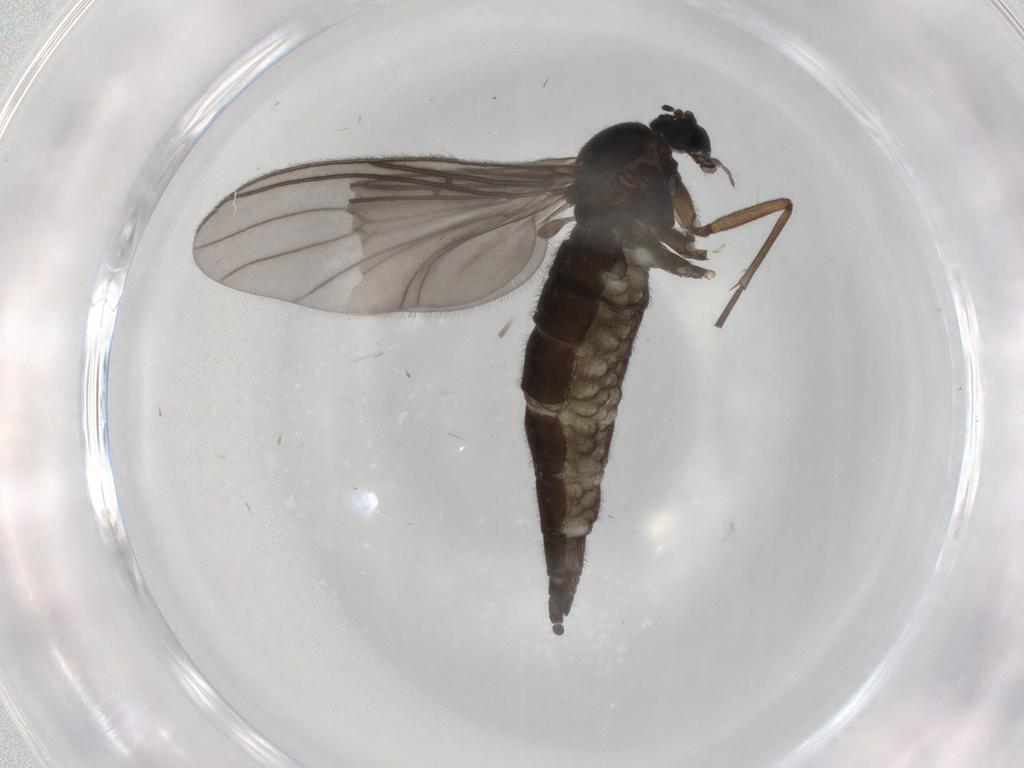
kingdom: Animalia
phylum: Arthropoda
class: Insecta
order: Diptera
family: Sciaridae
